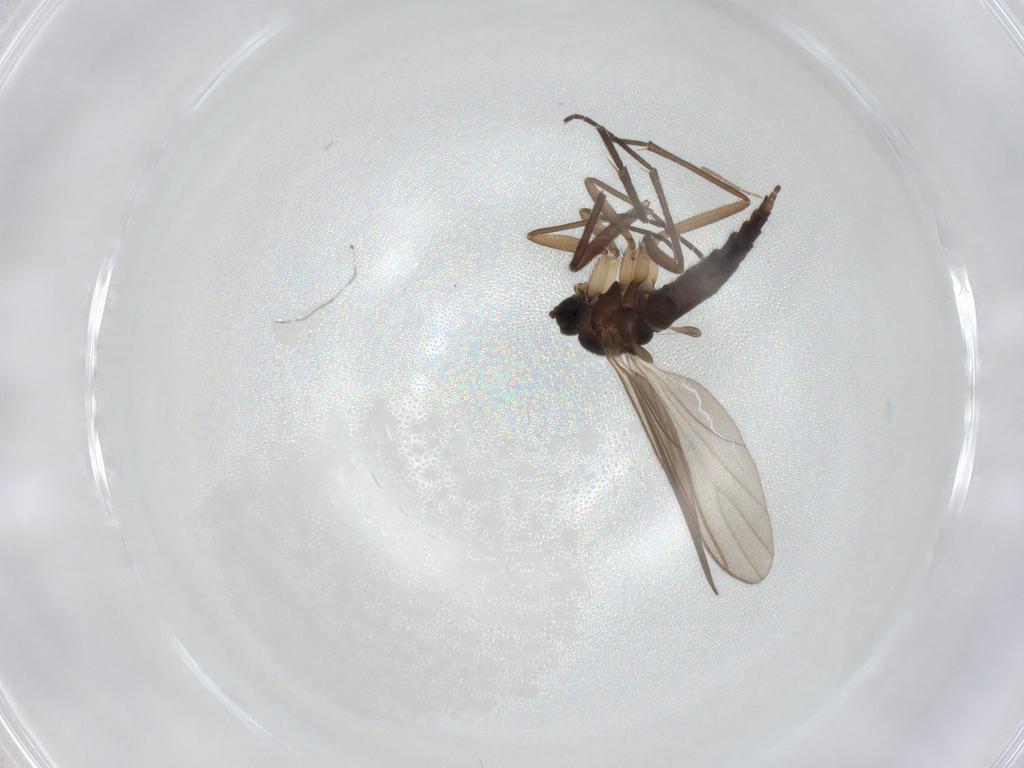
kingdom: Animalia
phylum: Arthropoda
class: Insecta
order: Diptera
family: Sciaridae
